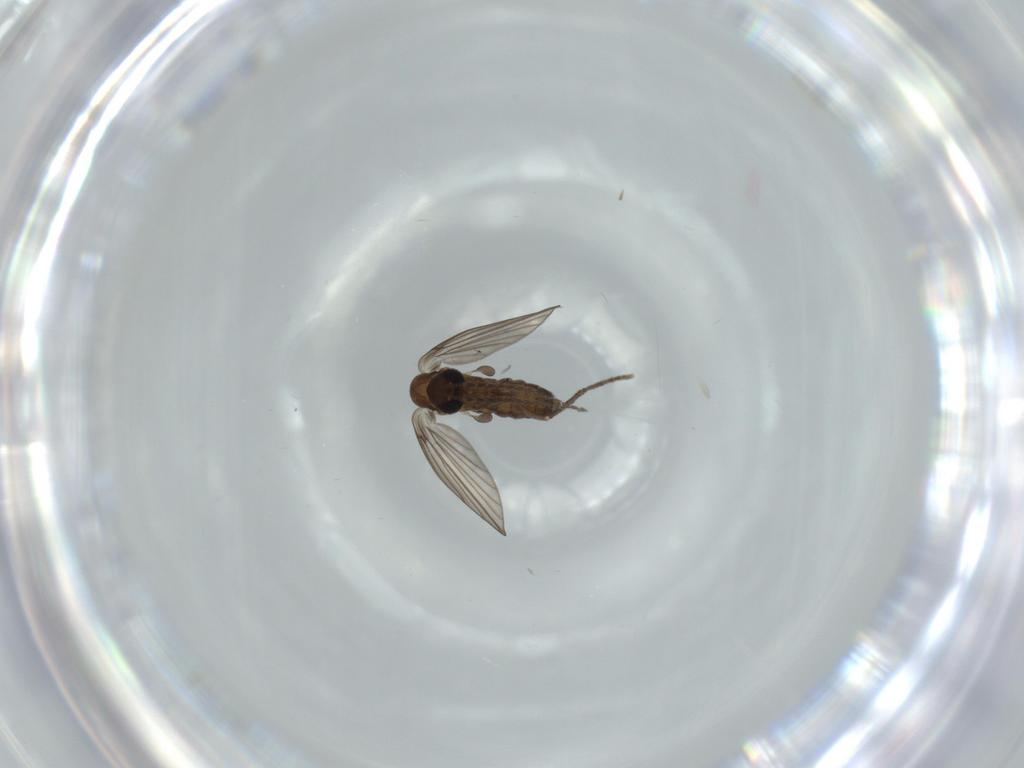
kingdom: Animalia
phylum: Arthropoda
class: Insecta
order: Diptera
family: Psychodidae
